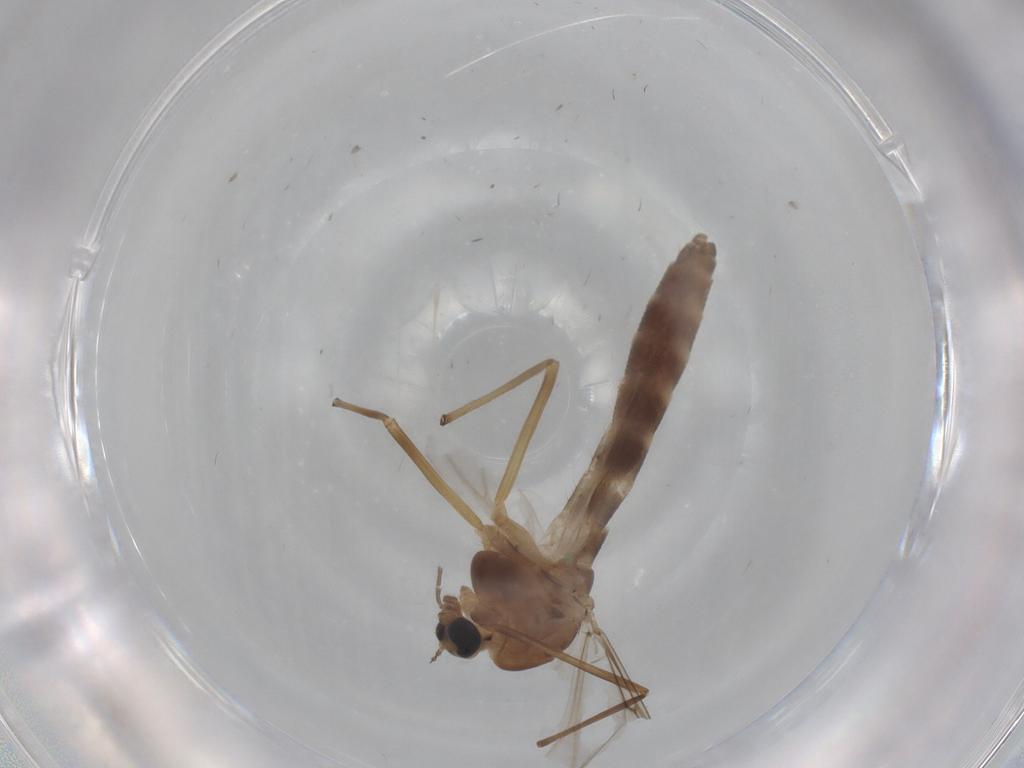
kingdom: Animalia
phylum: Arthropoda
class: Insecta
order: Diptera
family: Chironomidae
